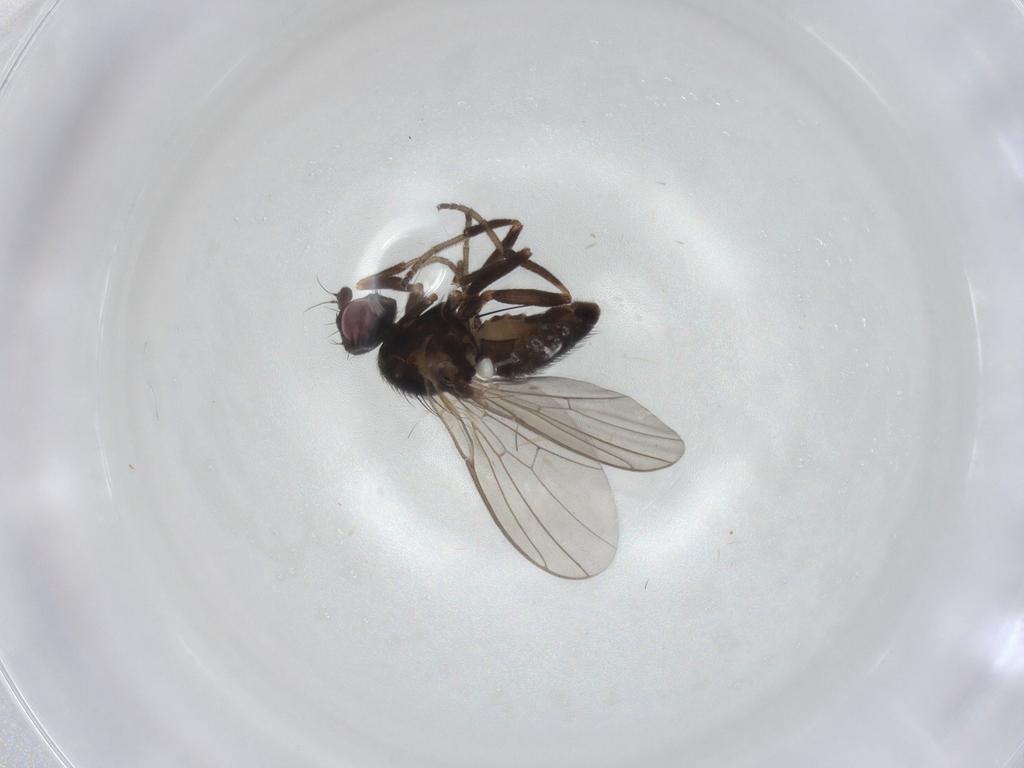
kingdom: Animalia
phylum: Arthropoda
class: Insecta
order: Diptera
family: Agromyzidae
